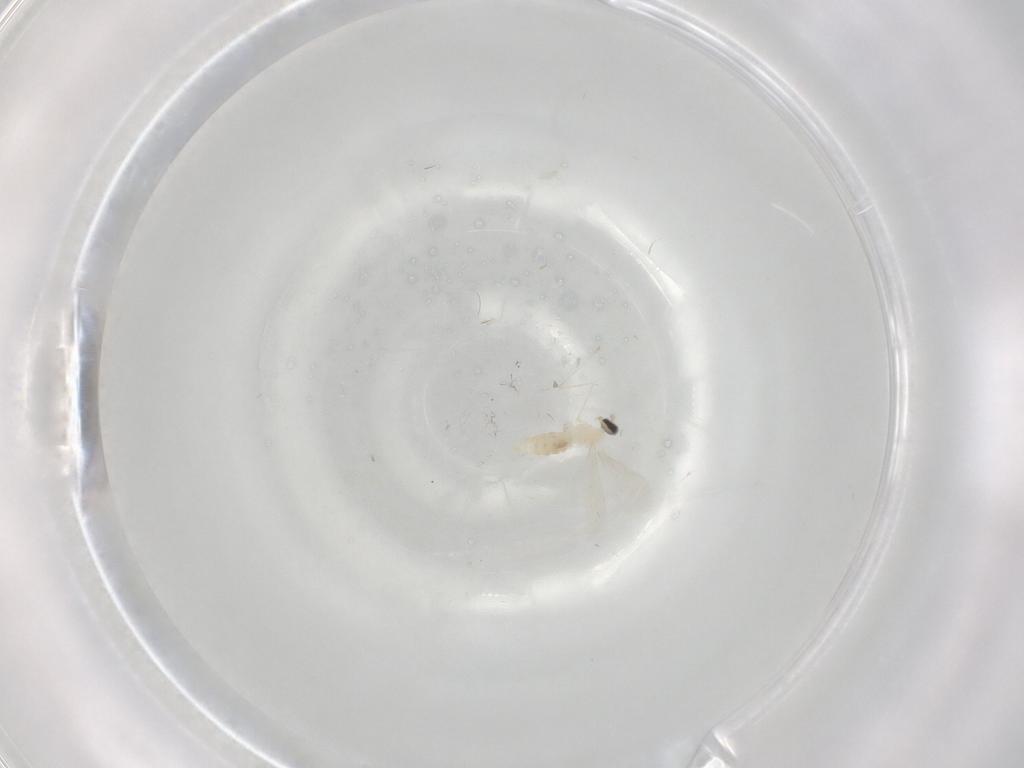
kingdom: Animalia
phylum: Arthropoda
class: Insecta
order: Diptera
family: Cecidomyiidae
